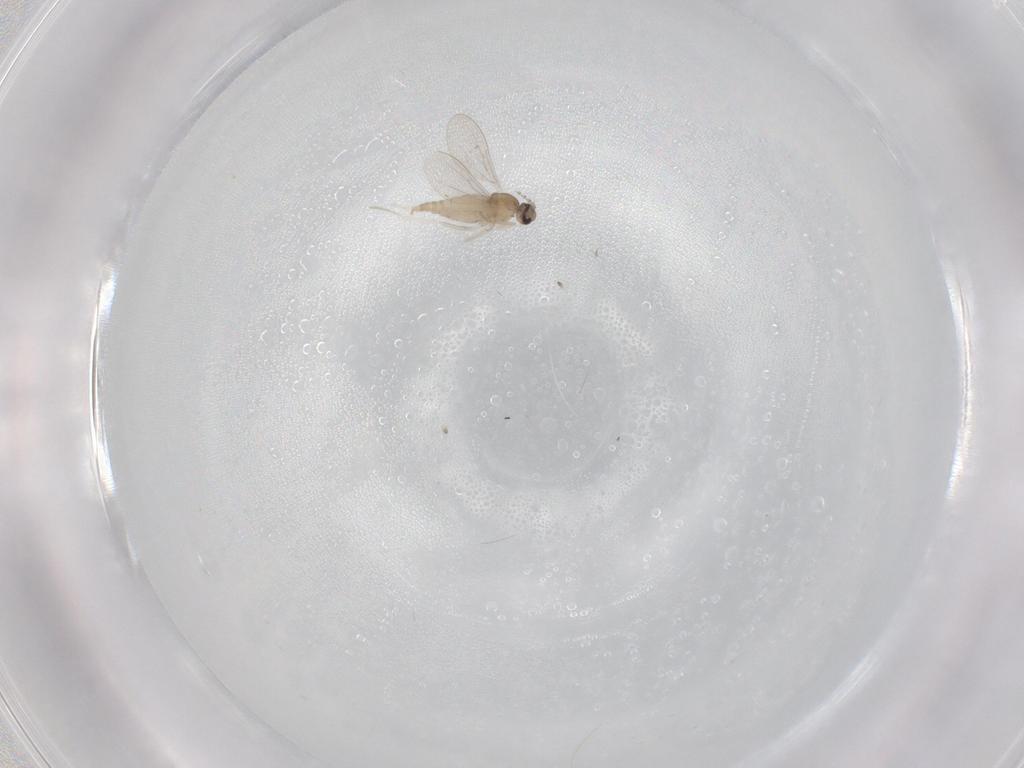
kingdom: Animalia
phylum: Arthropoda
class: Insecta
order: Diptera
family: Cecidomyiidae
